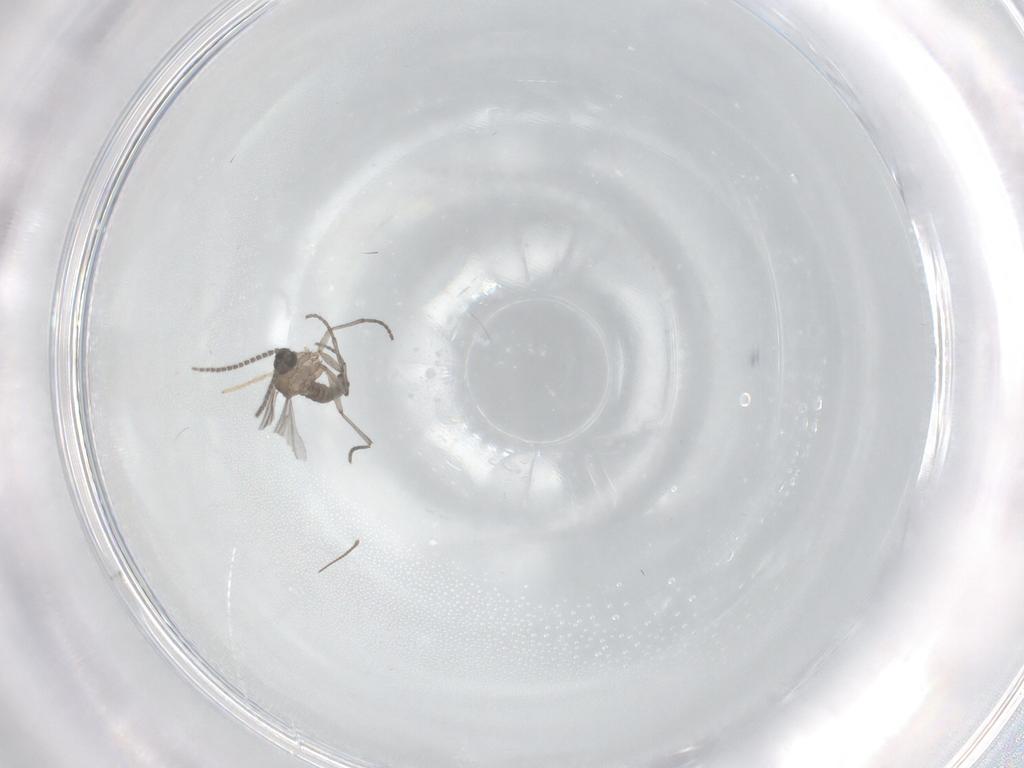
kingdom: Animalia
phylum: Arthropoda
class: Insecta
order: Diptera
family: Sciaridae
